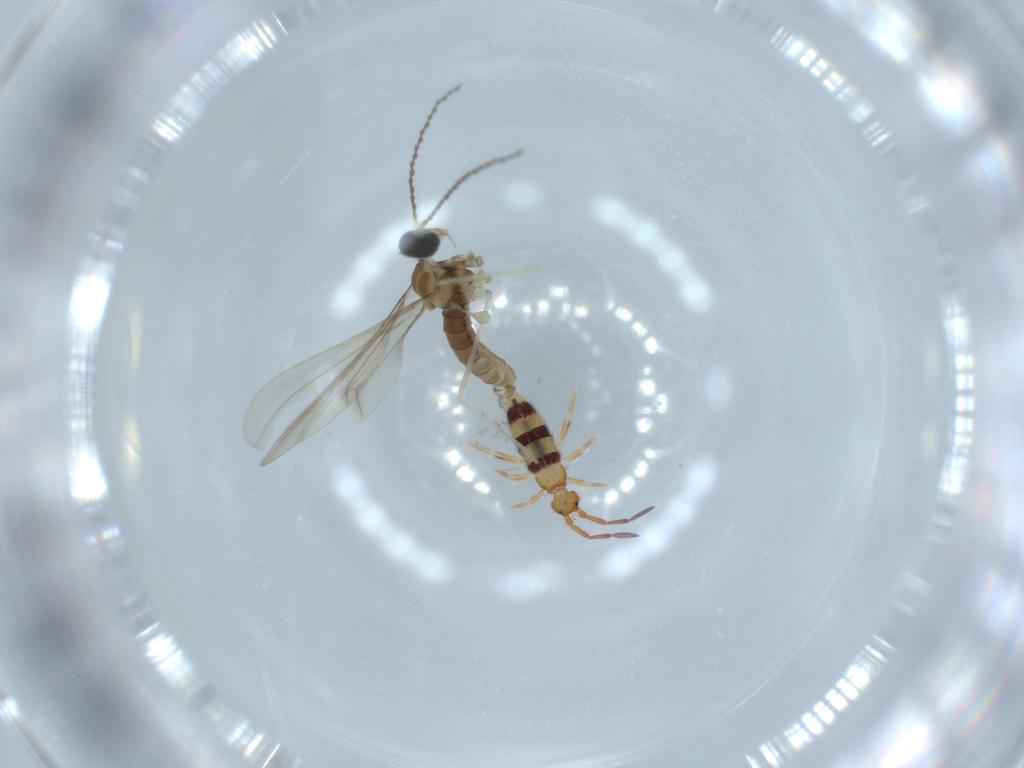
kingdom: Animalia
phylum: Arthropoda
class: Insecta
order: Diptera
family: Cecidomyiidae
